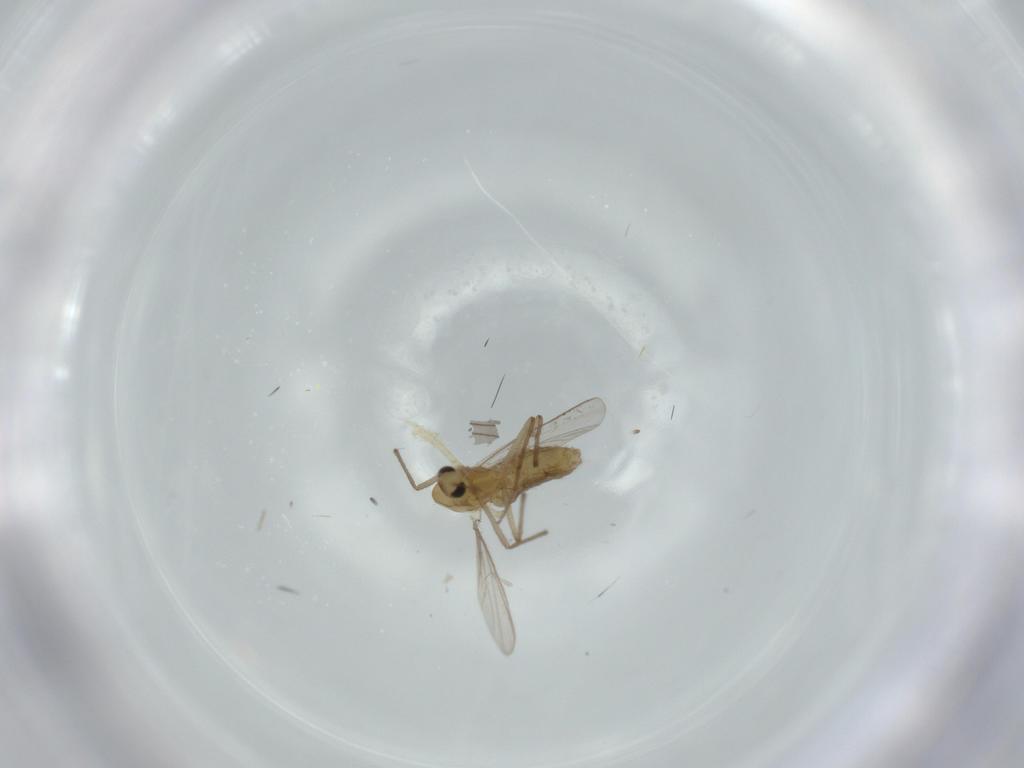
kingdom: Animalia
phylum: Arthropoda
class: Insecta
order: Diptera
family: Chironomidae
